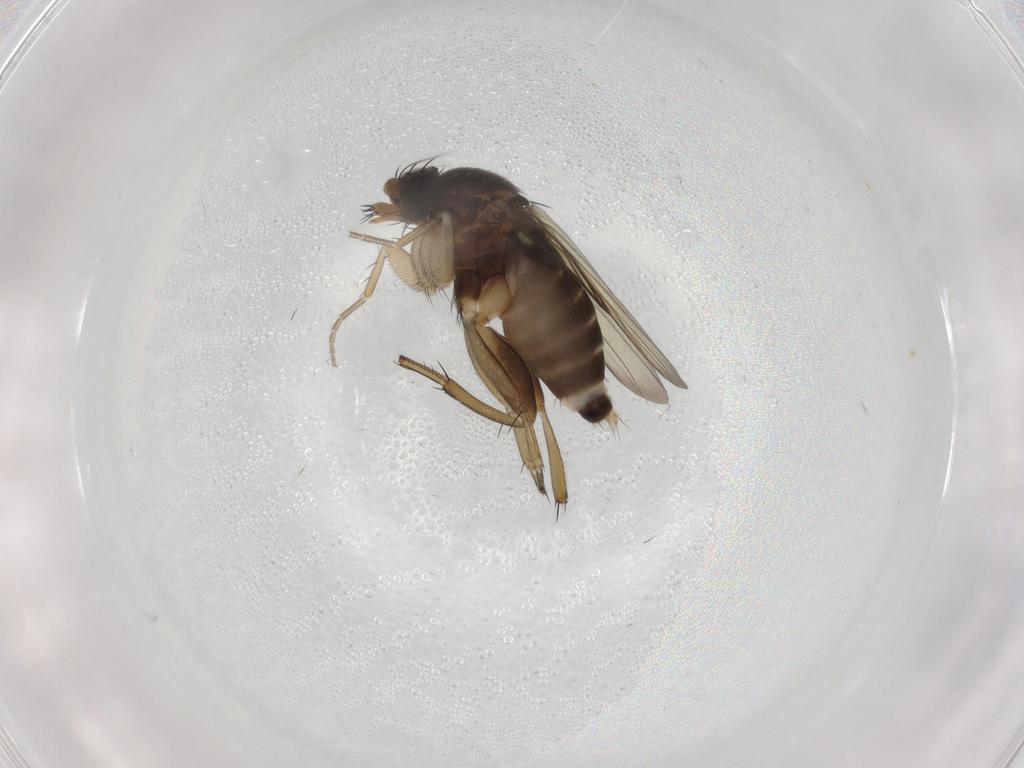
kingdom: Animalia
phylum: Arthropoda
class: Insecta
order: Diptera
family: Phoridae
